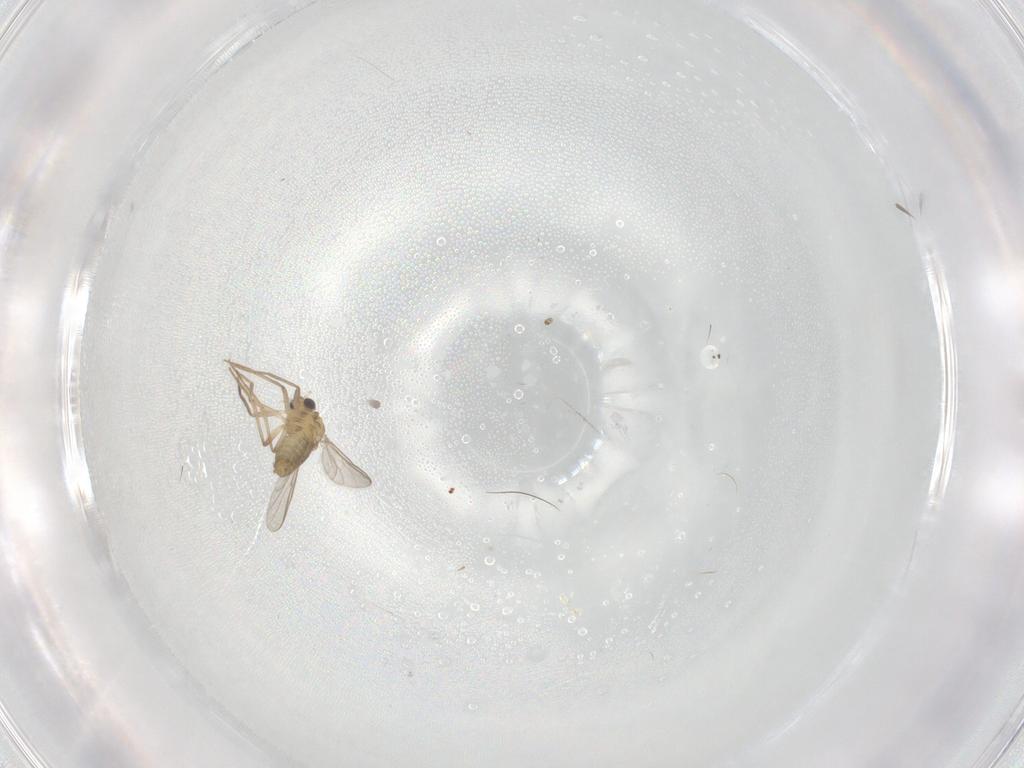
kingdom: Animalia
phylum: Arthropoda
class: Insecta
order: Diptera
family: Chironomidae
